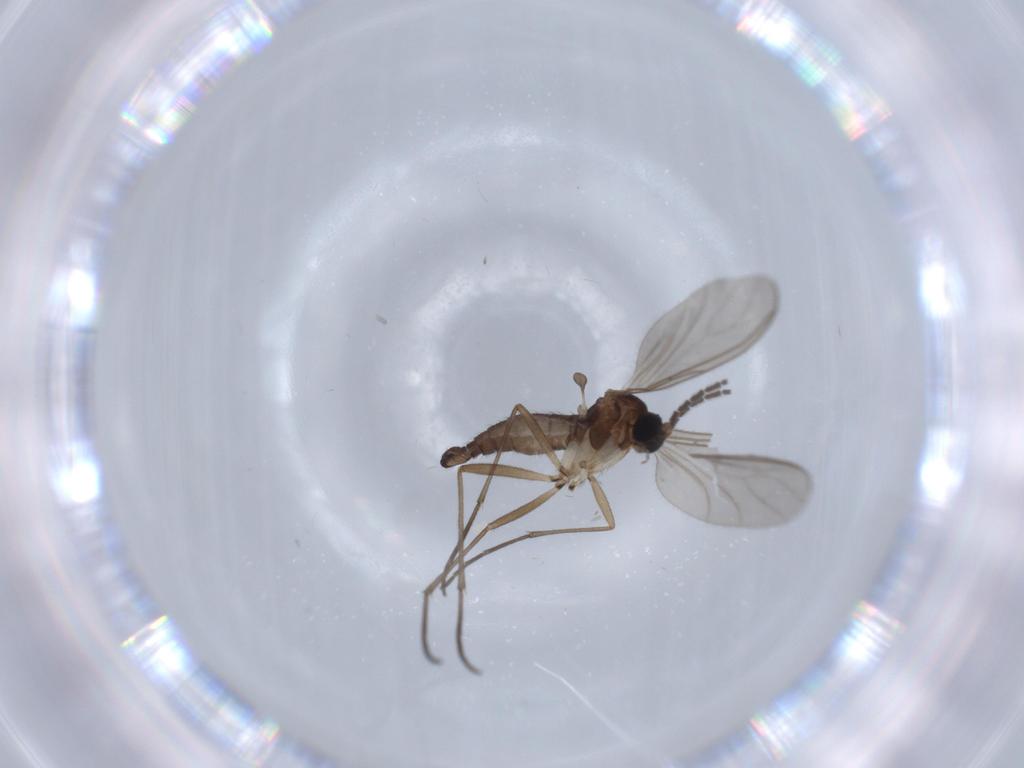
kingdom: Animalia
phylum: Arthropoda
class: Insecta
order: Diptera
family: Sciaridae
